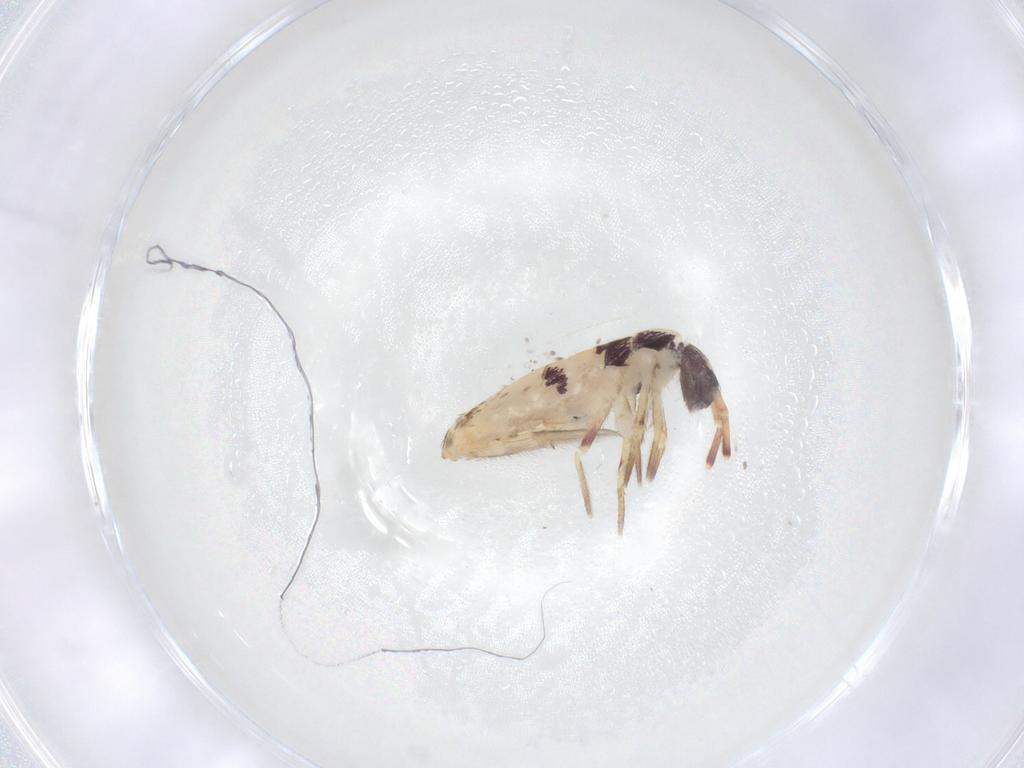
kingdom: Animalia
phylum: Arthropoda
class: Collembola
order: Entomobryomorpha
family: Entomobryidae
